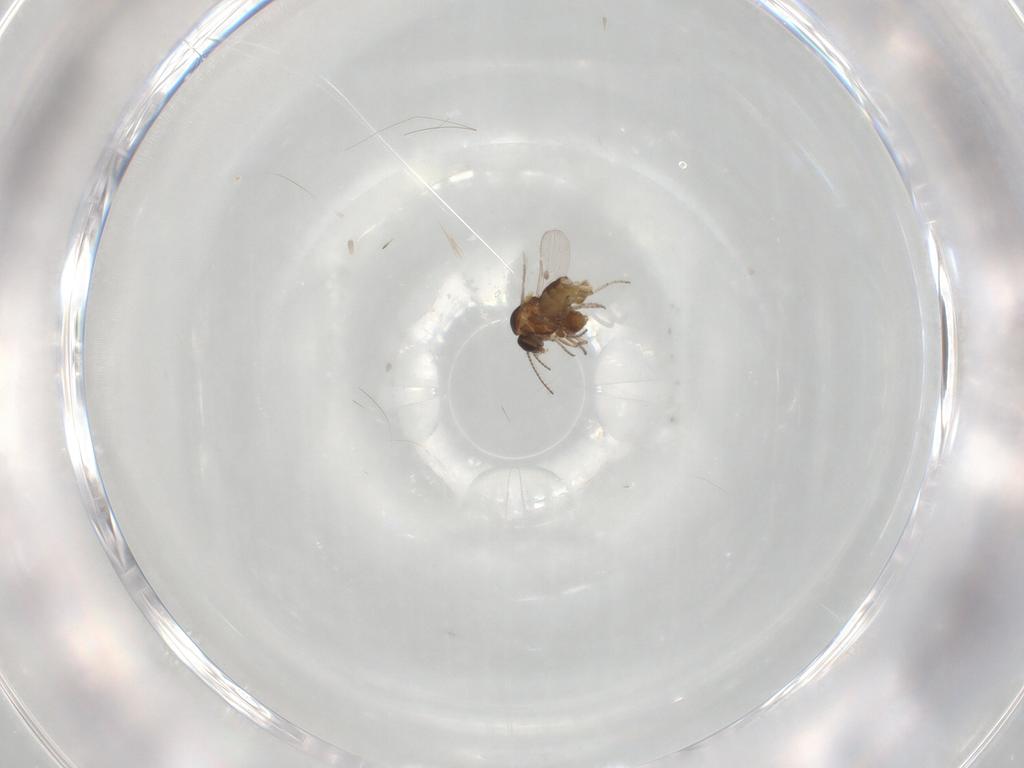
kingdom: Animalia
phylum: Arthropoda
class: Insecta
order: Diptera
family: Ceratopogonidae
